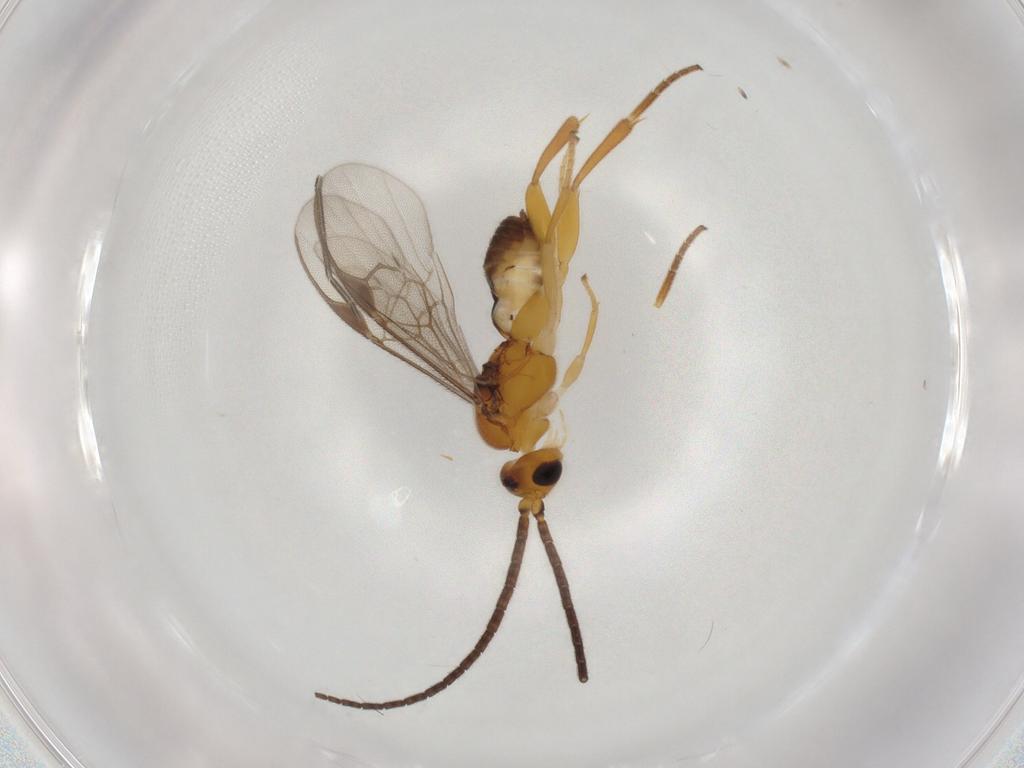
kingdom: Animalia
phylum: Arthropoda
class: Insecta
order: Hymenoptera
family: Braconidae
